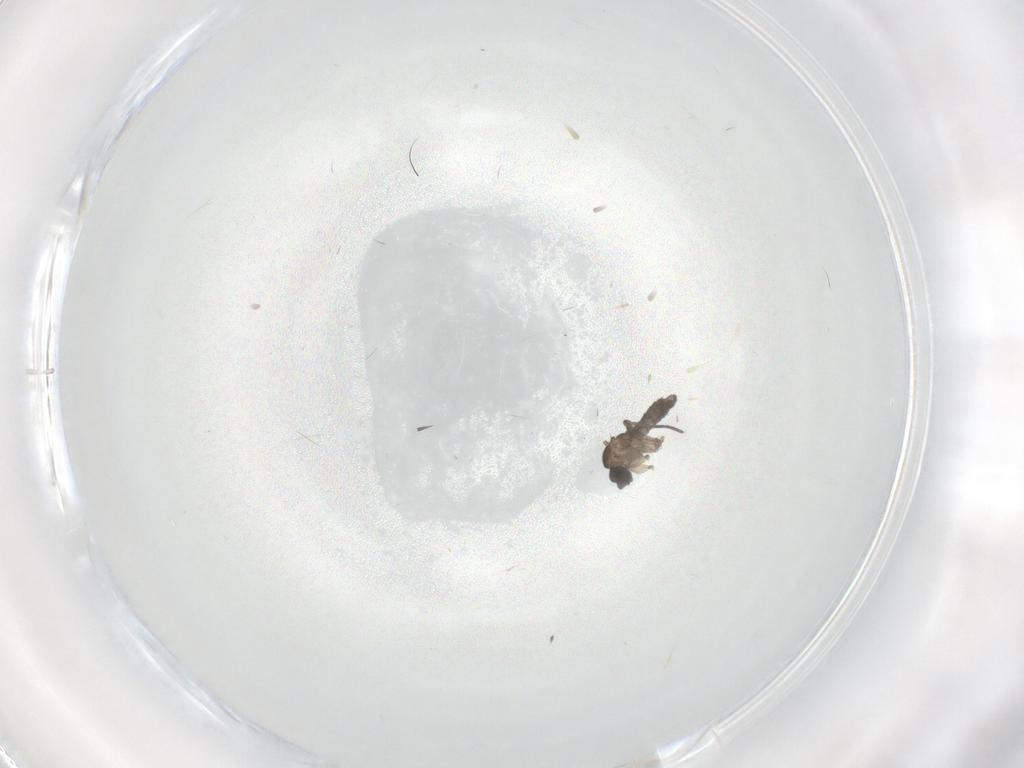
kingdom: Animalia
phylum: Arthropoda
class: Insecta
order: Diptera
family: Sciaridae
